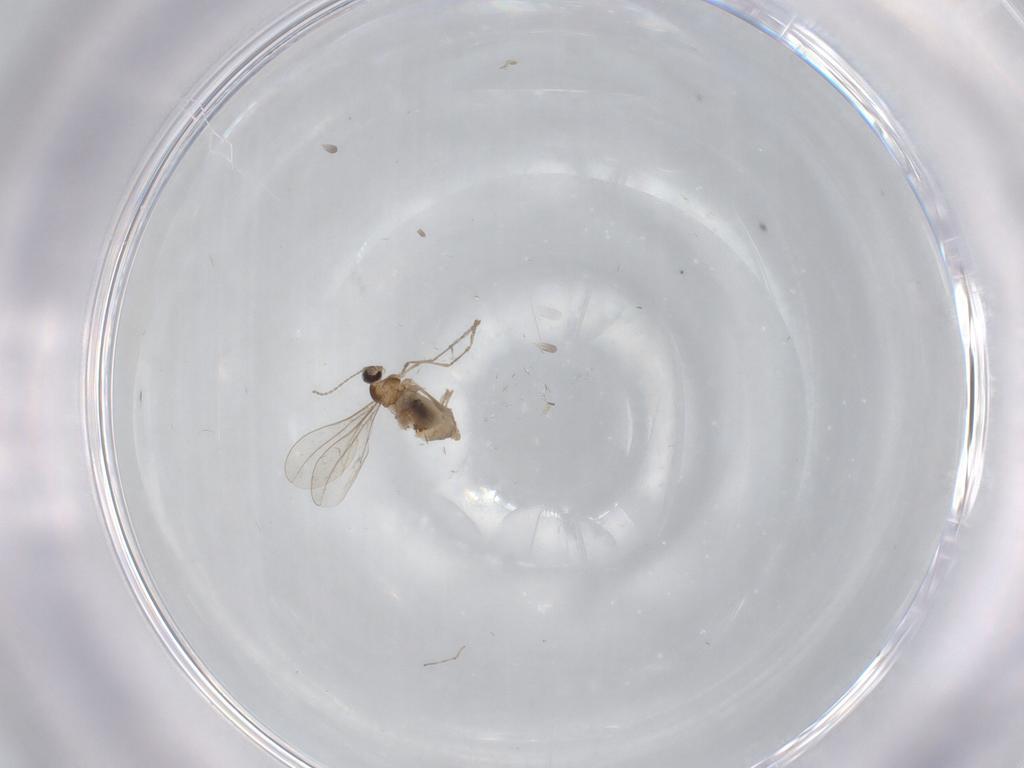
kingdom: Animalia
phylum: Arthropoda
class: Insecta
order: Diptera
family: Cecidomyiidae
